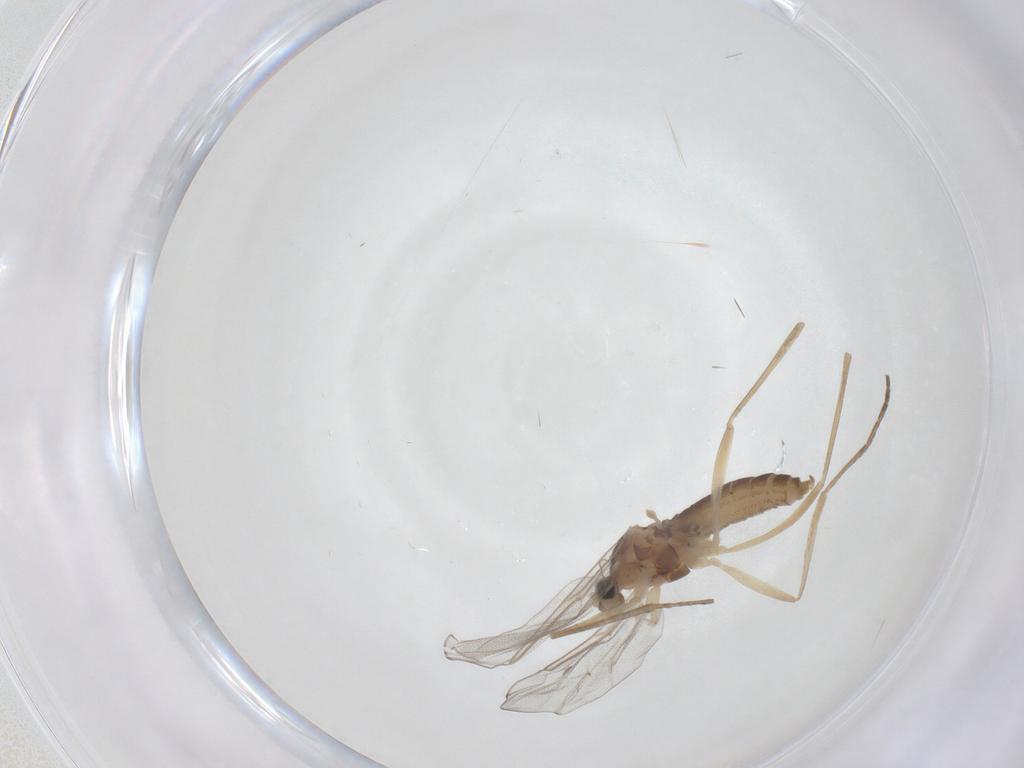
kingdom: Animalia
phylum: Arthropoda
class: Insecta
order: Diptera
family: Cecidomyiidae
